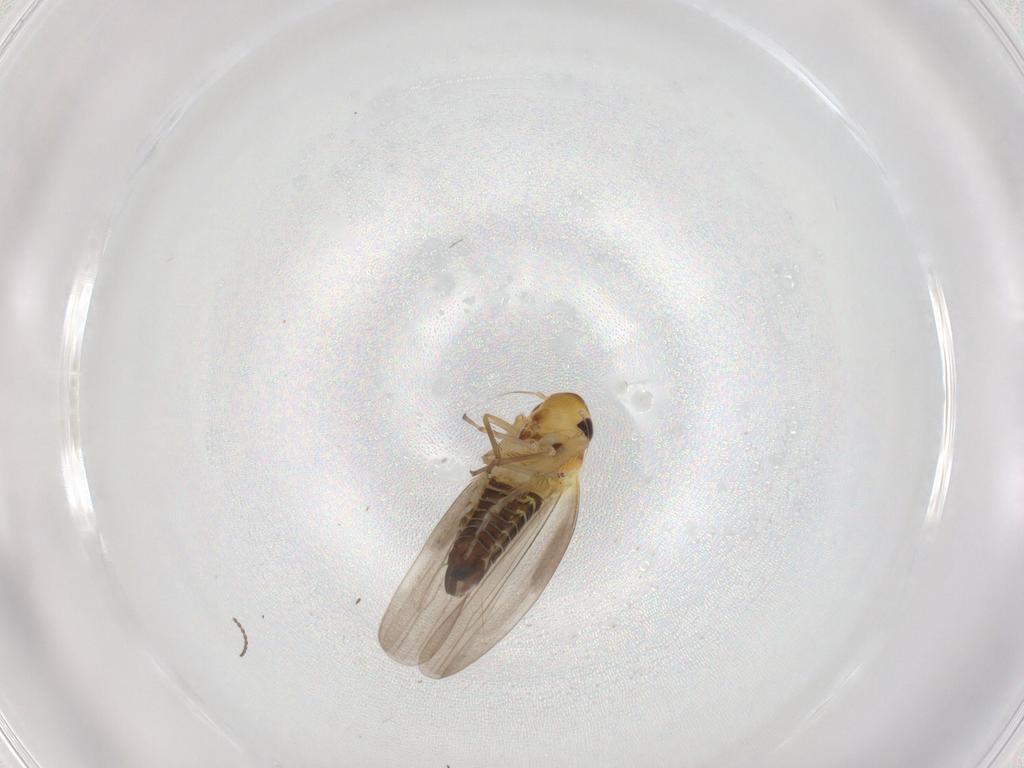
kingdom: Animalia
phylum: Arthropoda
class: Insecta
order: Hemiptera
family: Cicadellidae
